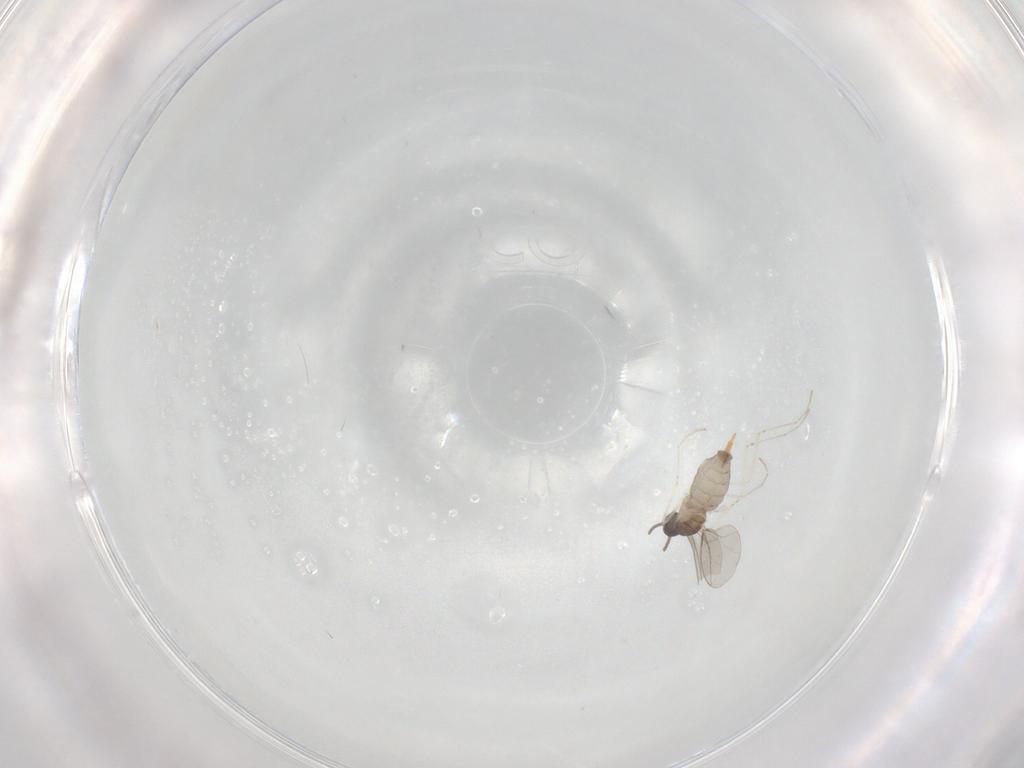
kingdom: Animalia
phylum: Arthropoda
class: Insecta
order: Diptera
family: Cecidomyiidae
